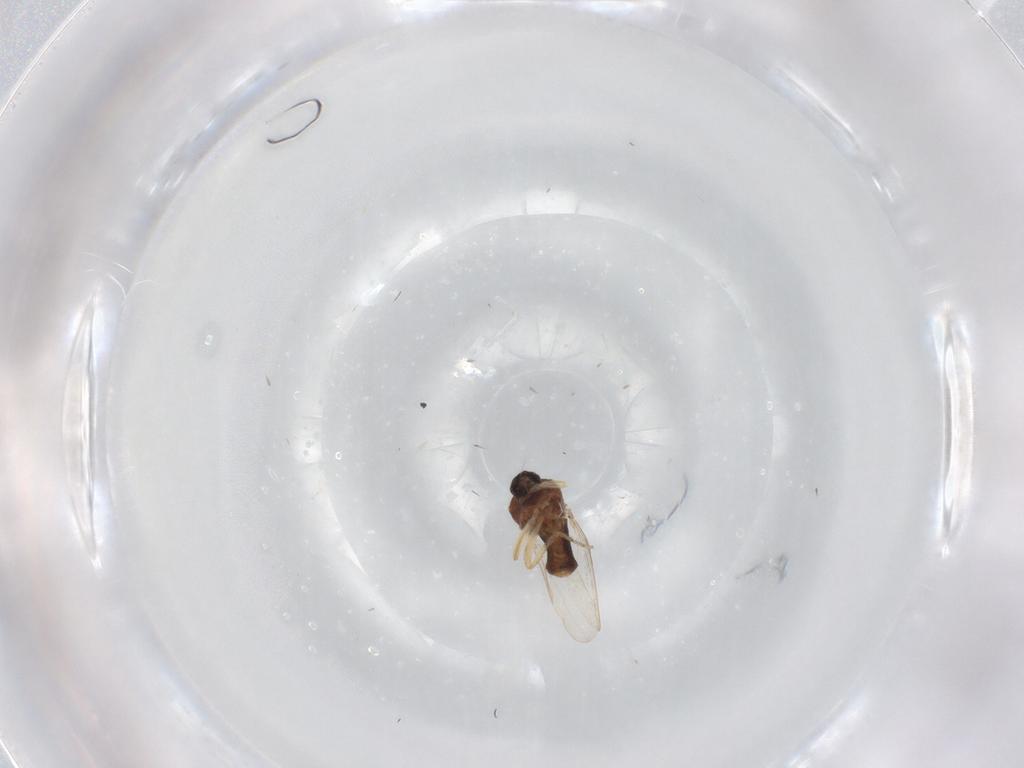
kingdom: Animalia
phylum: Arthropoda
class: Insecta
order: Diptera
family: Ceratopogonidae
